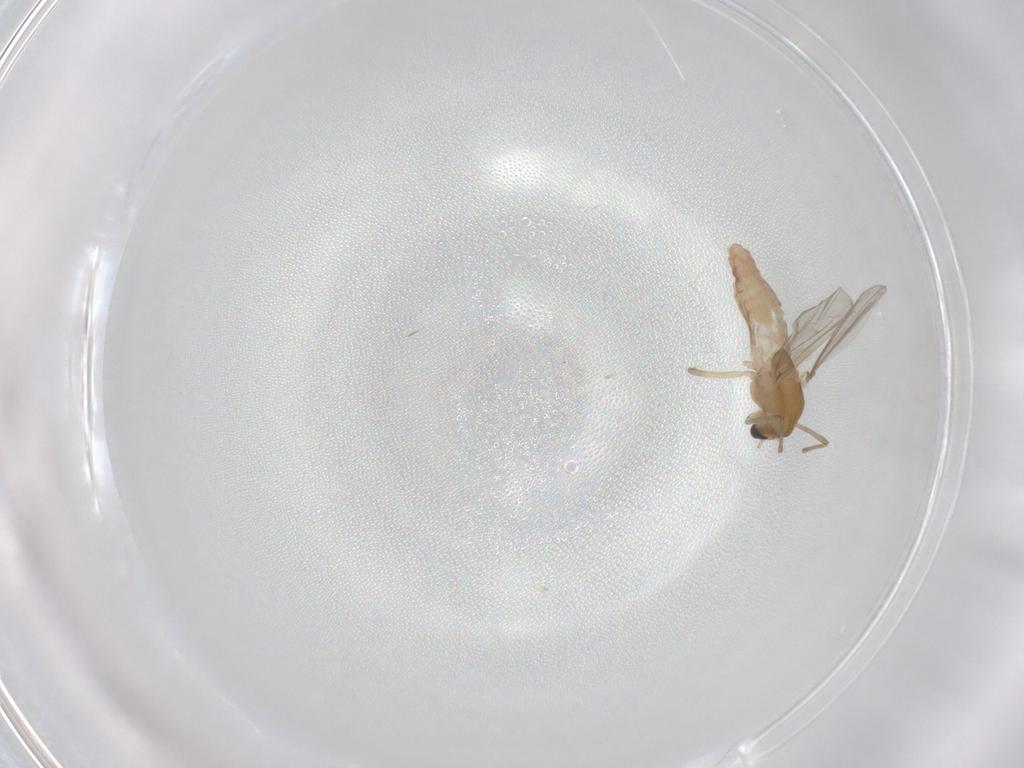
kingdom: Animalia
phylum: Arthropoda
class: Insecta
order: Diptera
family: Chironomidae
